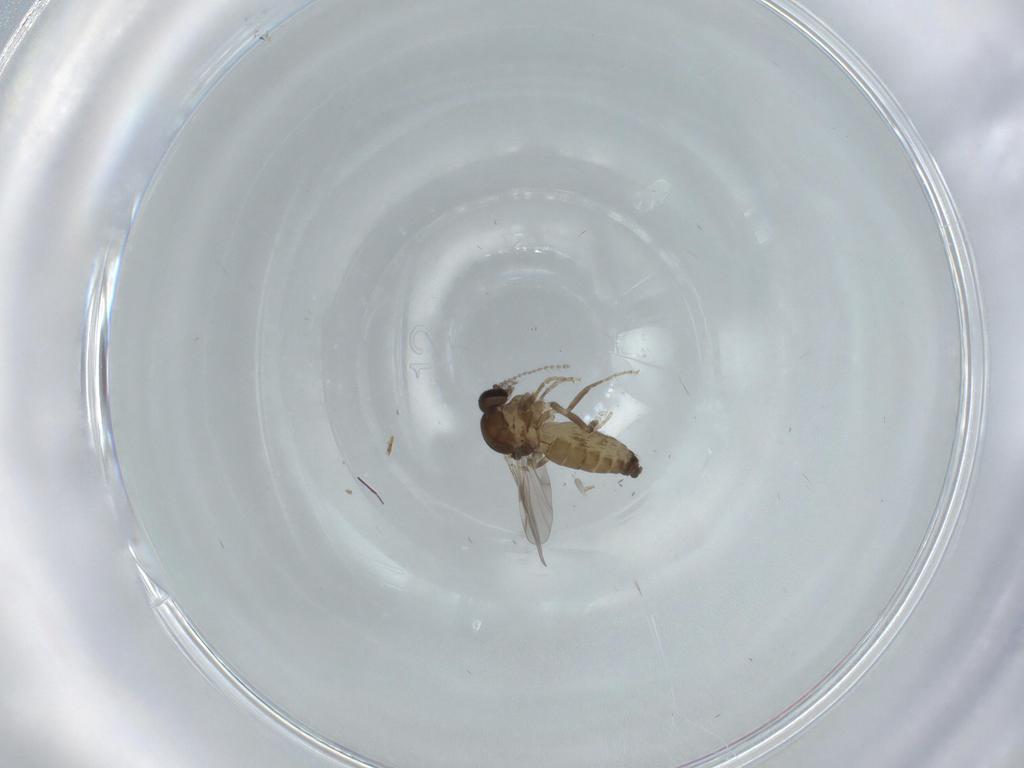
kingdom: Animalia
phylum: Arthropoda
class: Insecta
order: Diptera
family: Ceratopogonidae
